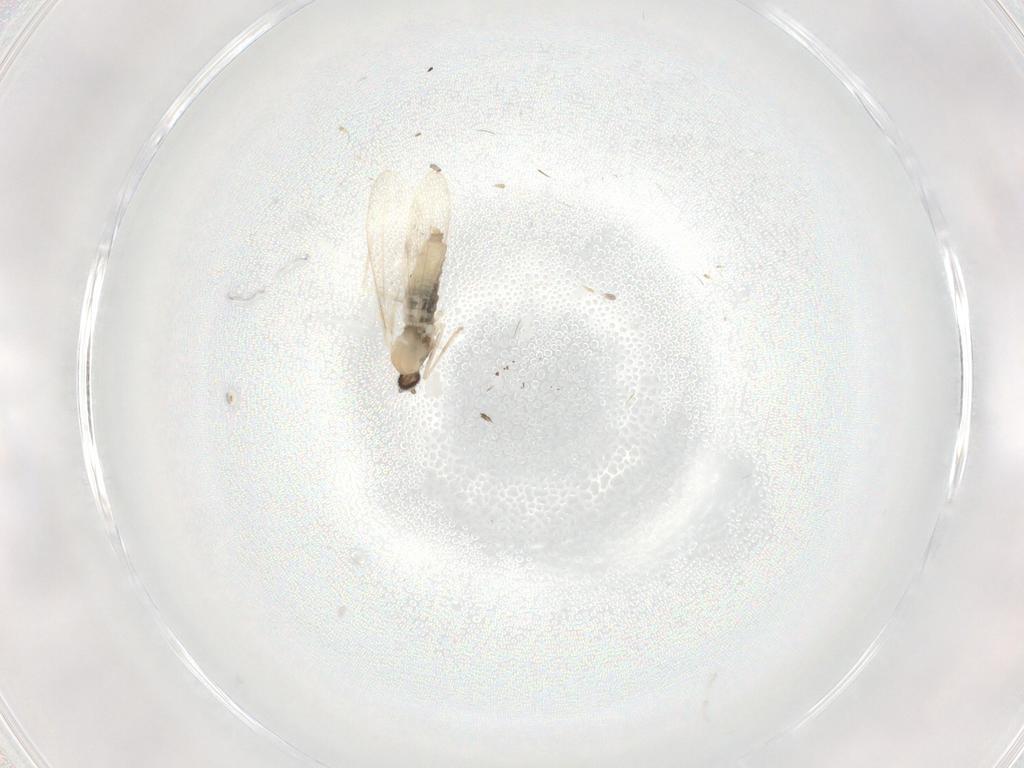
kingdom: Animalia
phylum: Arthropoda
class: Insecta
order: Diptera
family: Cecidomyiidae
